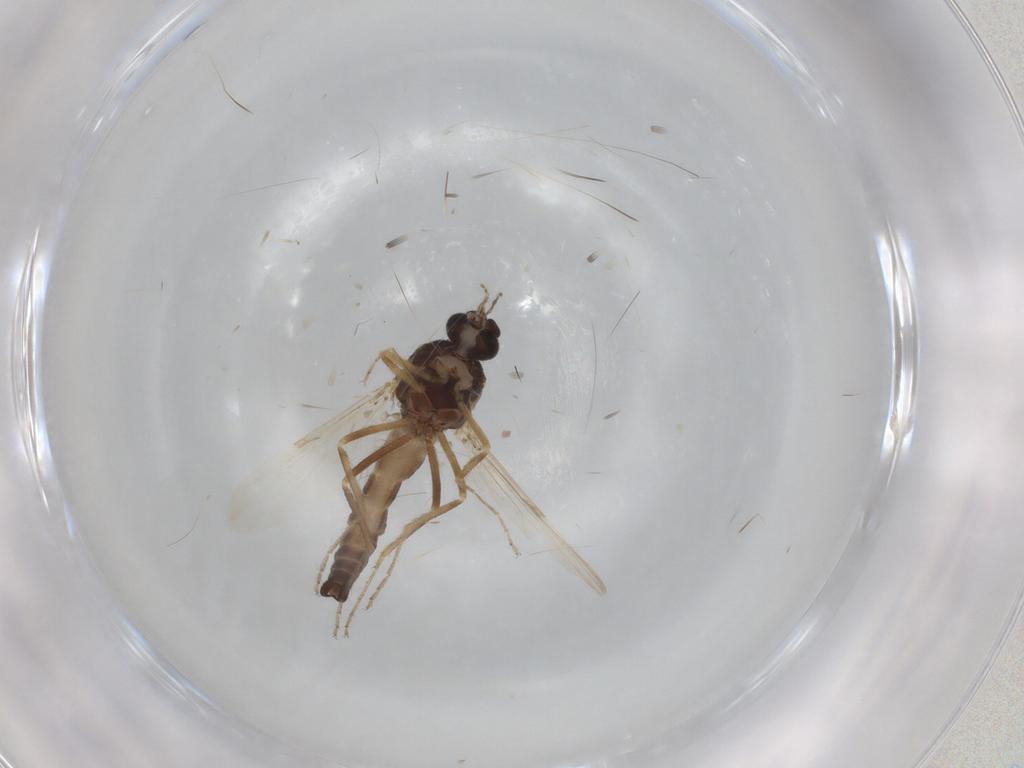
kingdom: Animalia
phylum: Arthropoda
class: Insecta
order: Diptera
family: Ceratopogonidae
